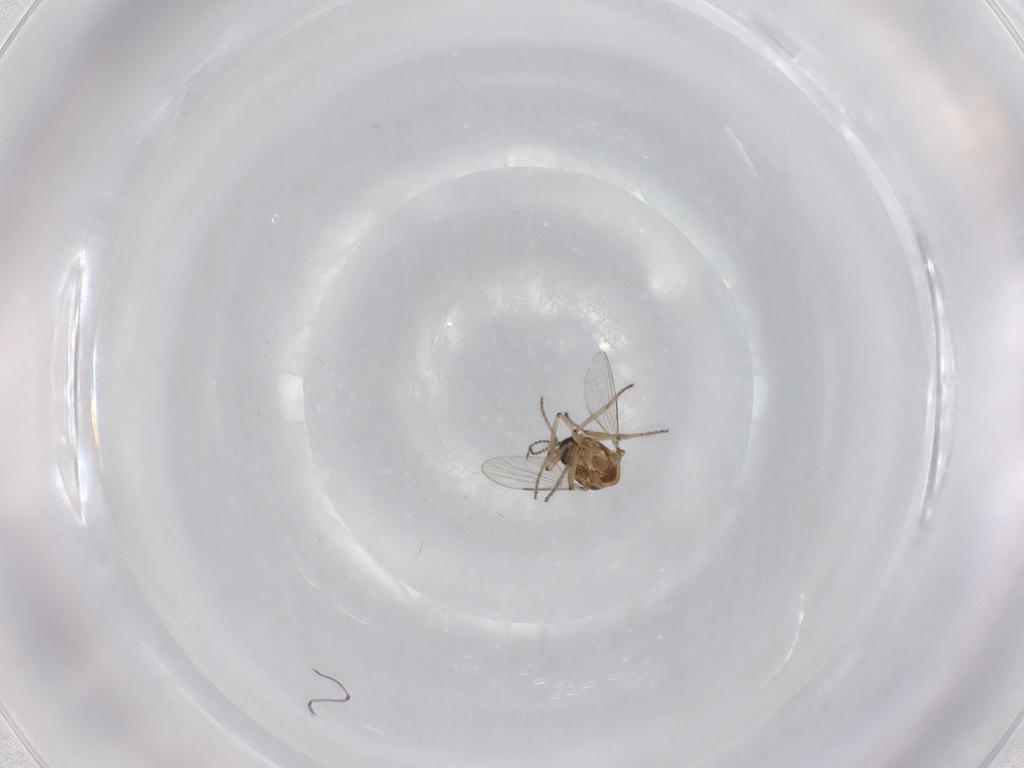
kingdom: Animalia
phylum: Arthropoda
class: Insecta
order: Diptera
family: Ceratopogonidae
